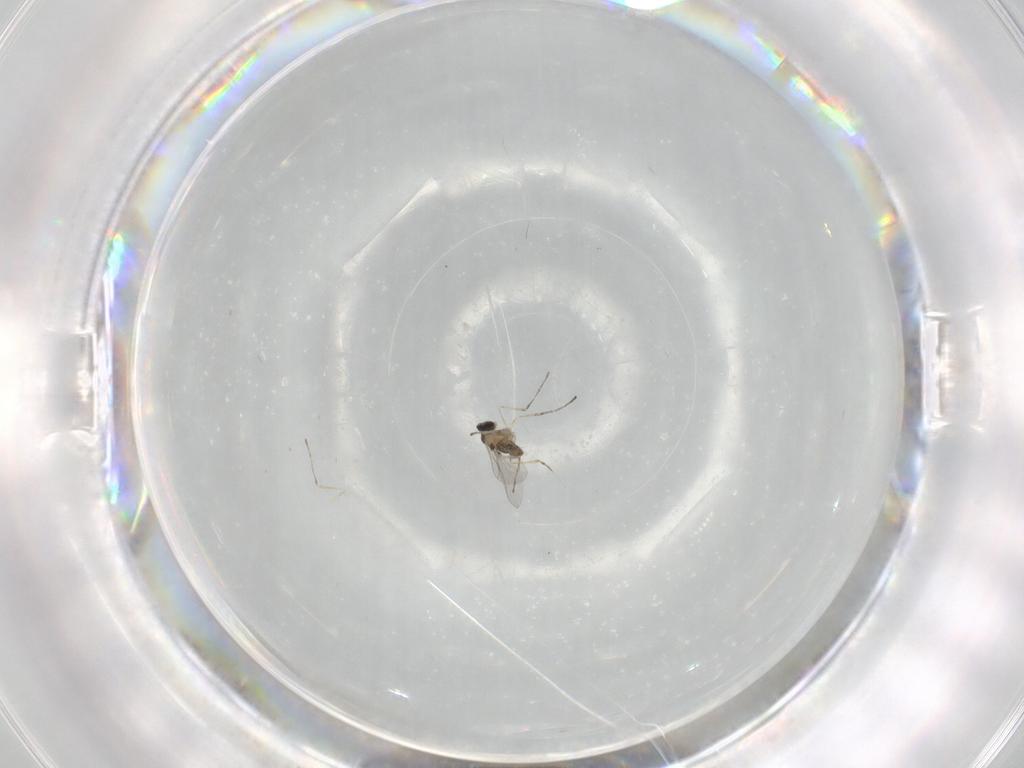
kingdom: Animalia
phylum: Arthropoda
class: Insecta
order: Diptera
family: Cecidomyiidae
